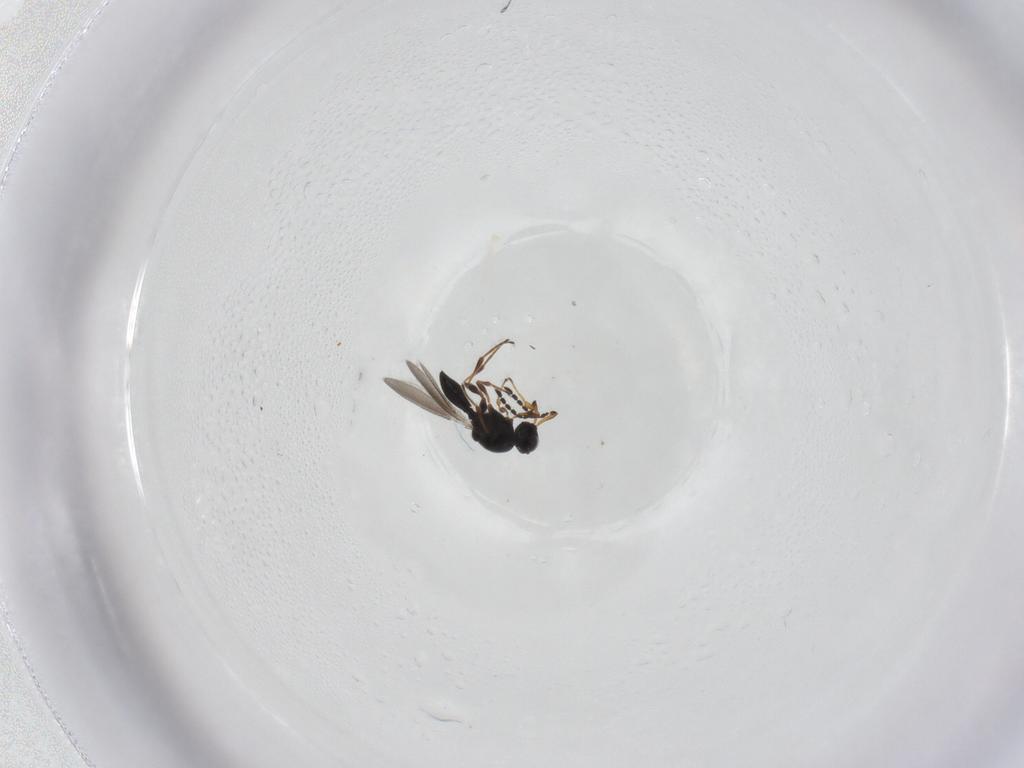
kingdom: Animalia
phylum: Arthropoda
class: Insecta
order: Hymenoptera
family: Platygastridae
